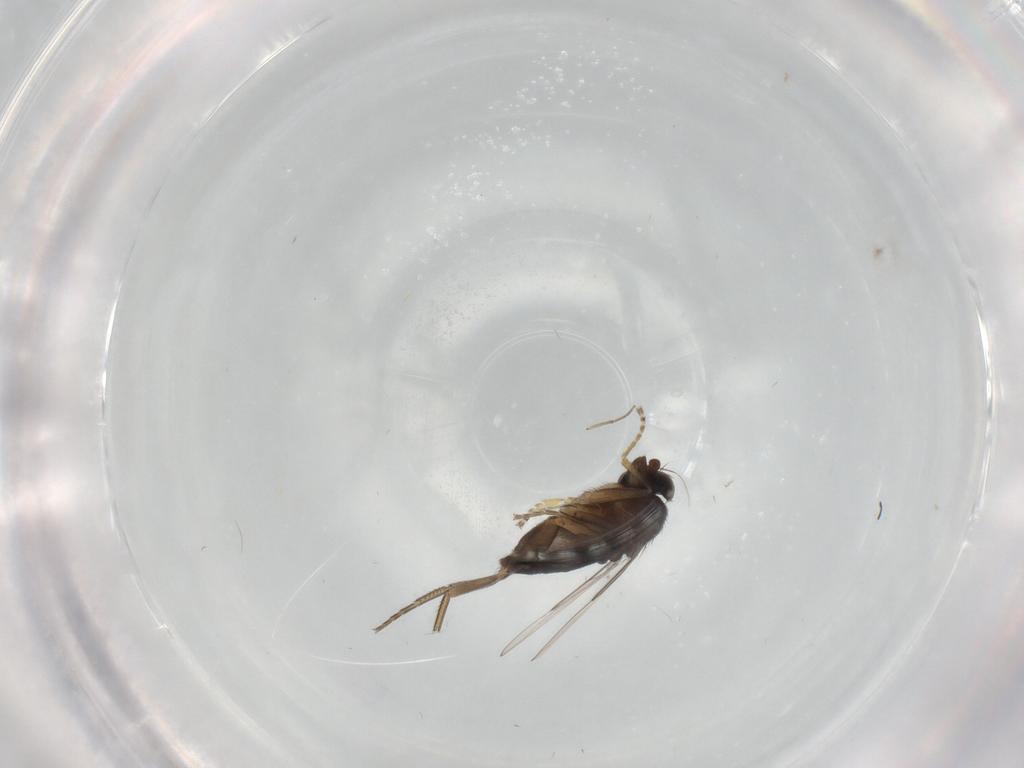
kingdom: Animalia
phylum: Arthropoda
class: Insecta
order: Diptera
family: Phoridae
